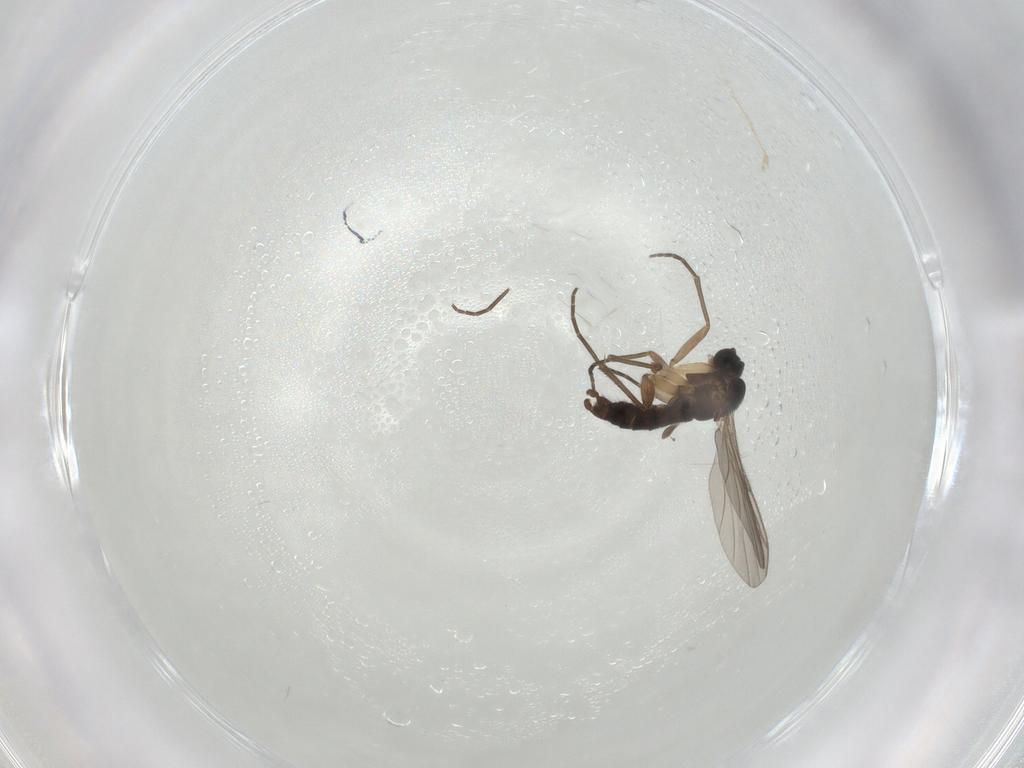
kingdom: Animalia
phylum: Arthropoda
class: Insecta
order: Diptera
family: Sciaridae
